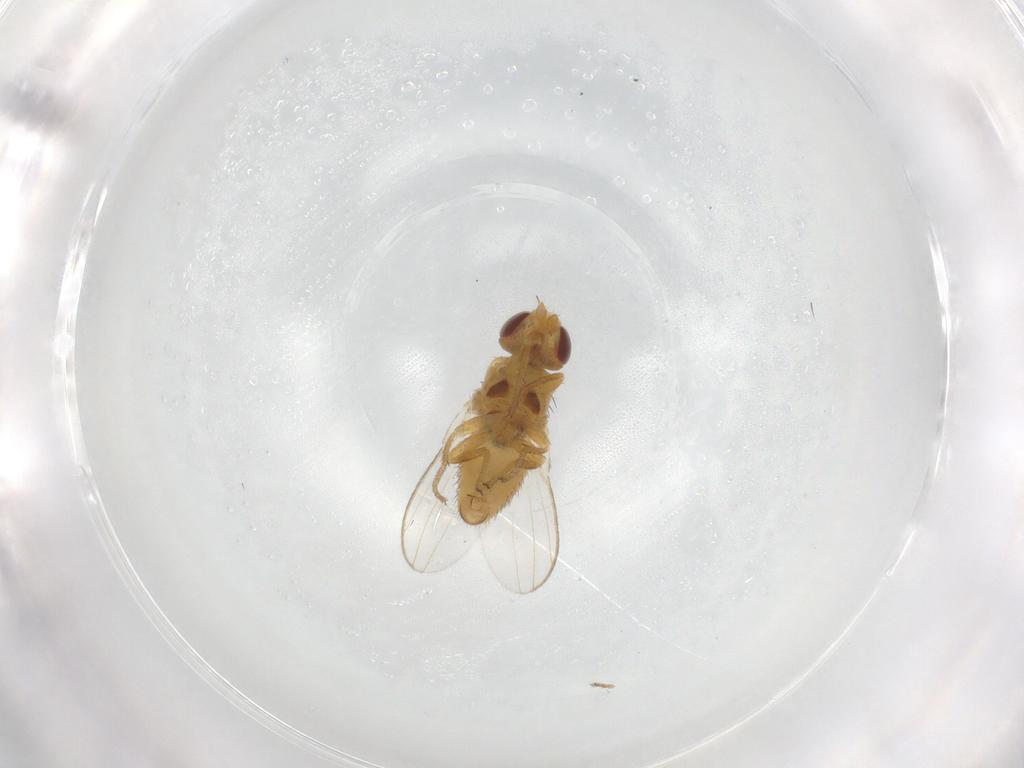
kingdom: Animalia
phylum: Arthropoda
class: Insecta
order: Diptera
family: Chloropidae
